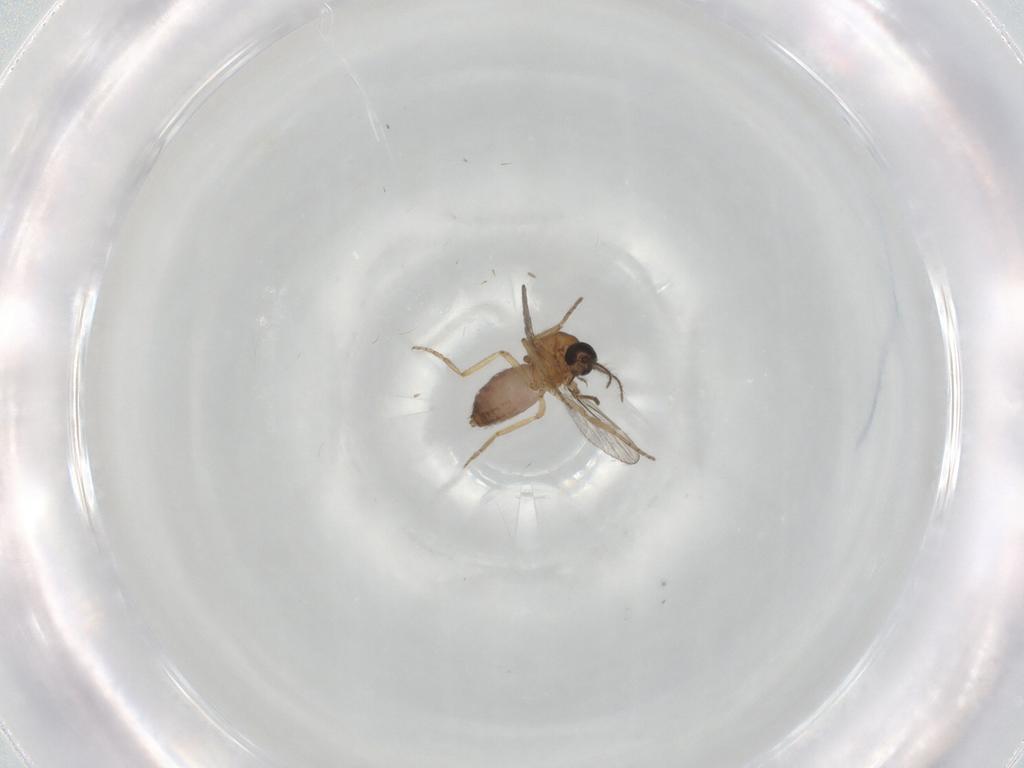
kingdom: Animalia
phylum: Arthropoda
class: Insecta
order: Diptera
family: Ceratopogonidae
